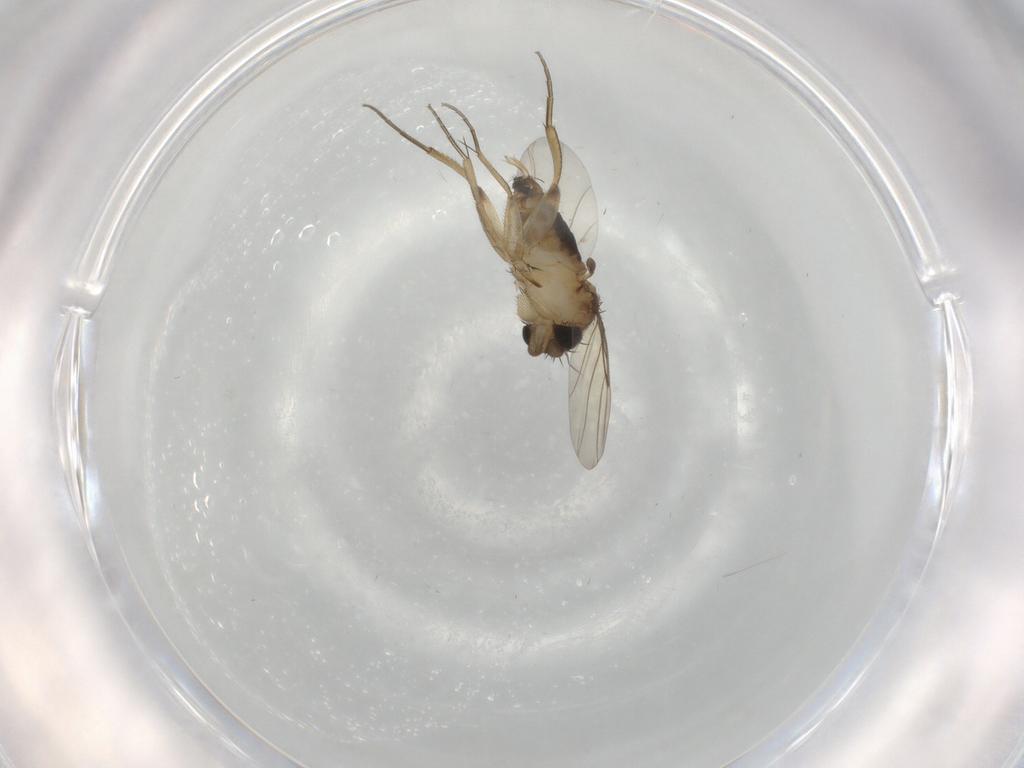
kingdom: Animalia
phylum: Arthropoda
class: Insecta
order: Diptera
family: Phoridae
